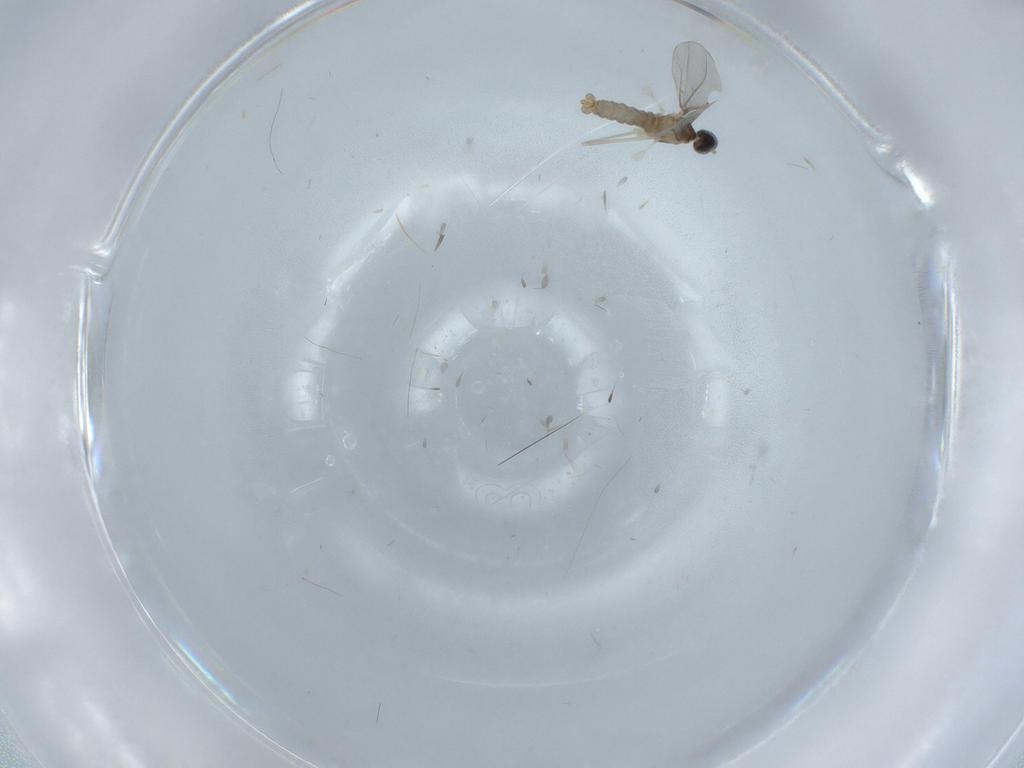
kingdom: Animalia
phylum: Arthropoda
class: Insecta
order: Diptera
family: Cecidomyiidae
